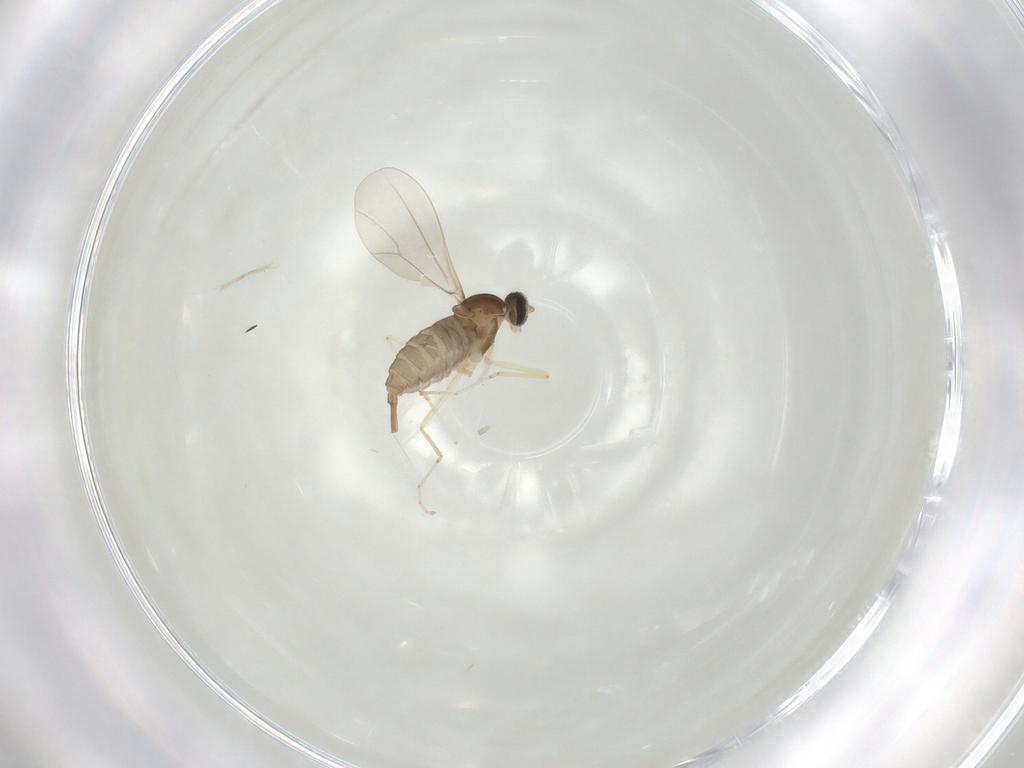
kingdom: Animalia
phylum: Arthropoda
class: Insecta
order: Diptera
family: Cecidomyiidae
